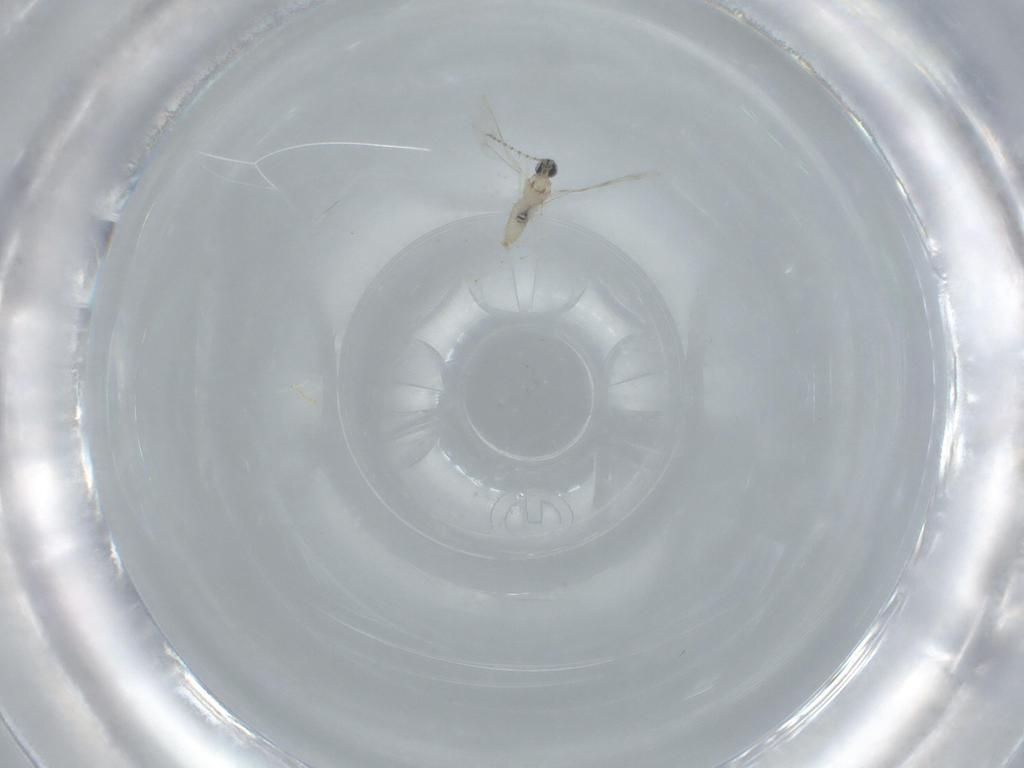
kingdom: Animalia
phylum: Arthropoda
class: Insecta
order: Diptera
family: Cecidomyiidae
